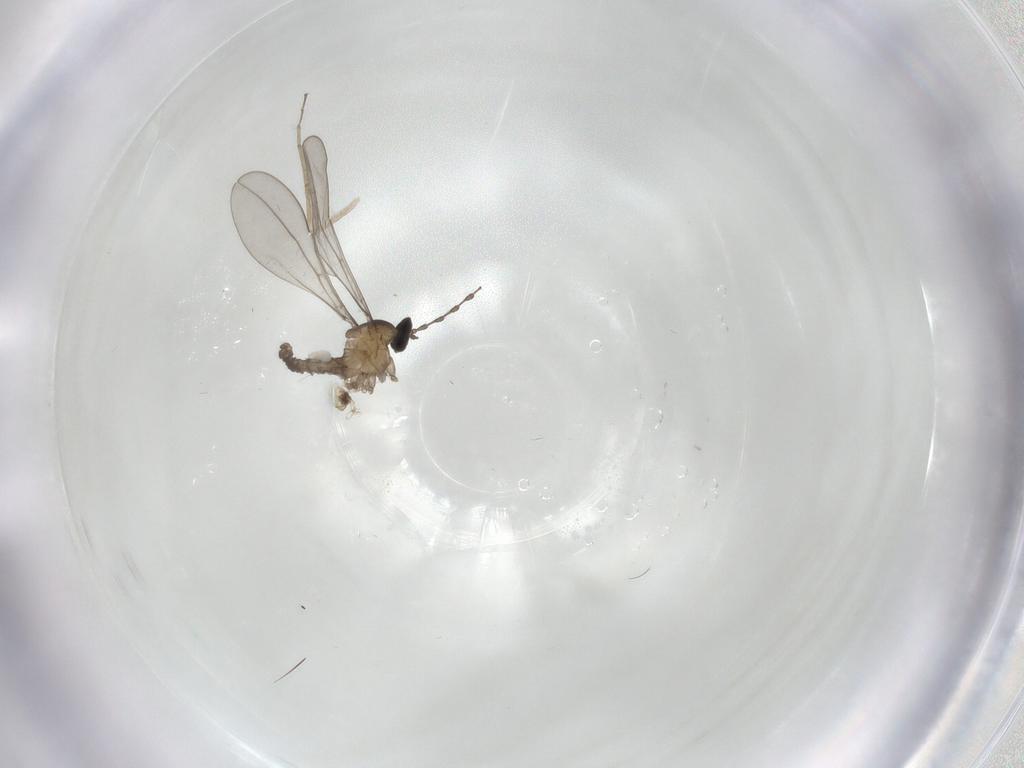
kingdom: Animalia
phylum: Arthropoda
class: Insecta
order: Diptera
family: Cecidomyiidae
